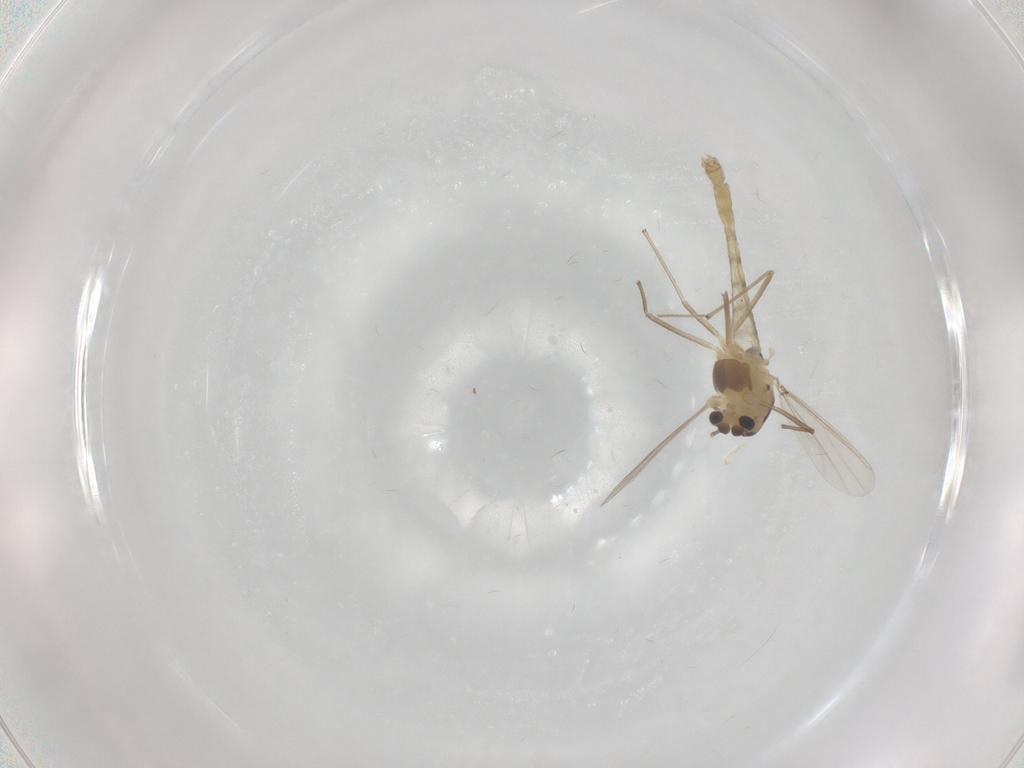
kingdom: Animalia
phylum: Arthropoda
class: Insecta
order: Diptera
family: Chironomidae
